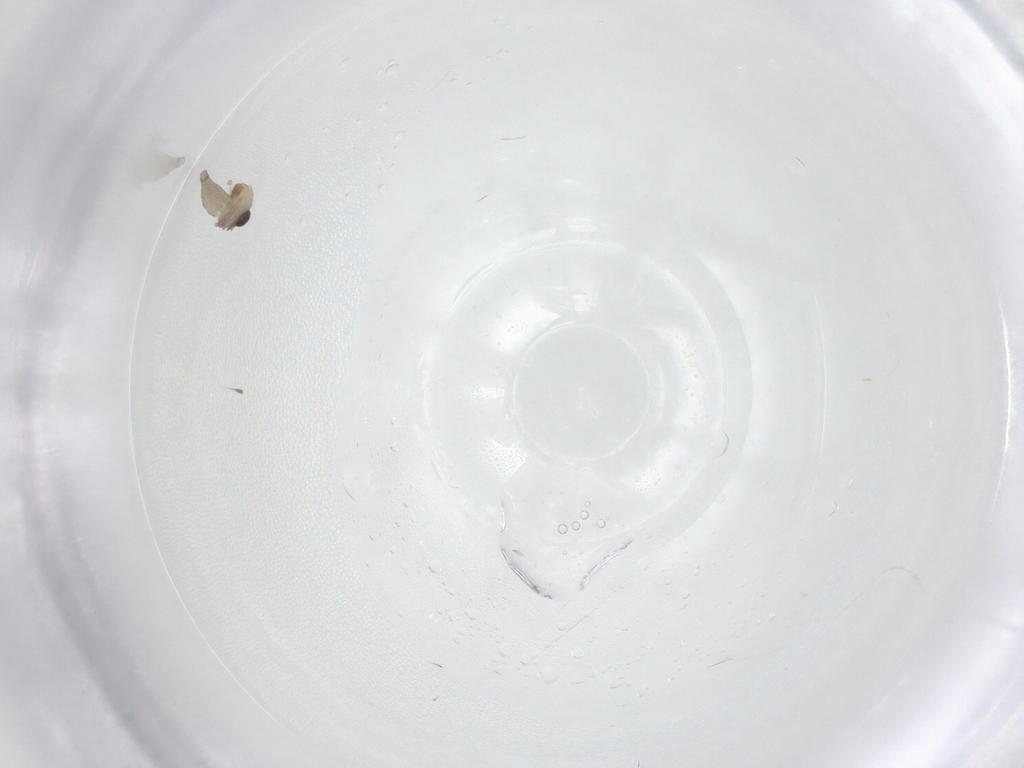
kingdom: Animalia
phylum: Arthropoda
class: Insecta
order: Diptera
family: Ceratopogonidae
